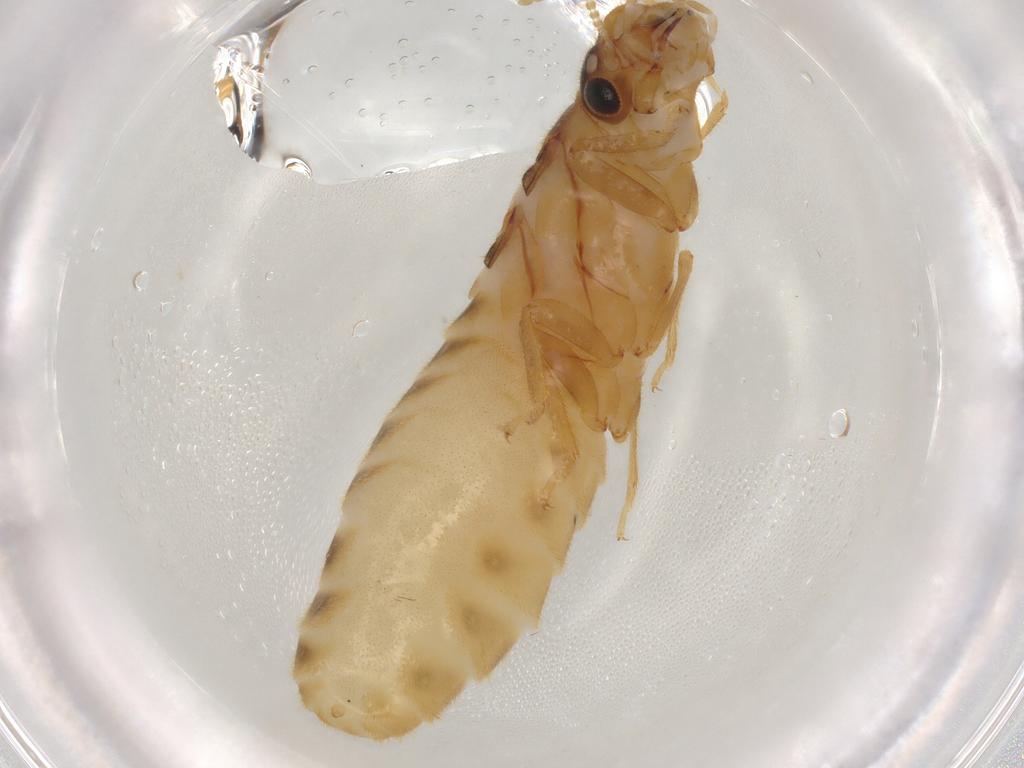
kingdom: Animalia
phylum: Arthropoda
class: Insecta
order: Blattodea
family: Termitidae
